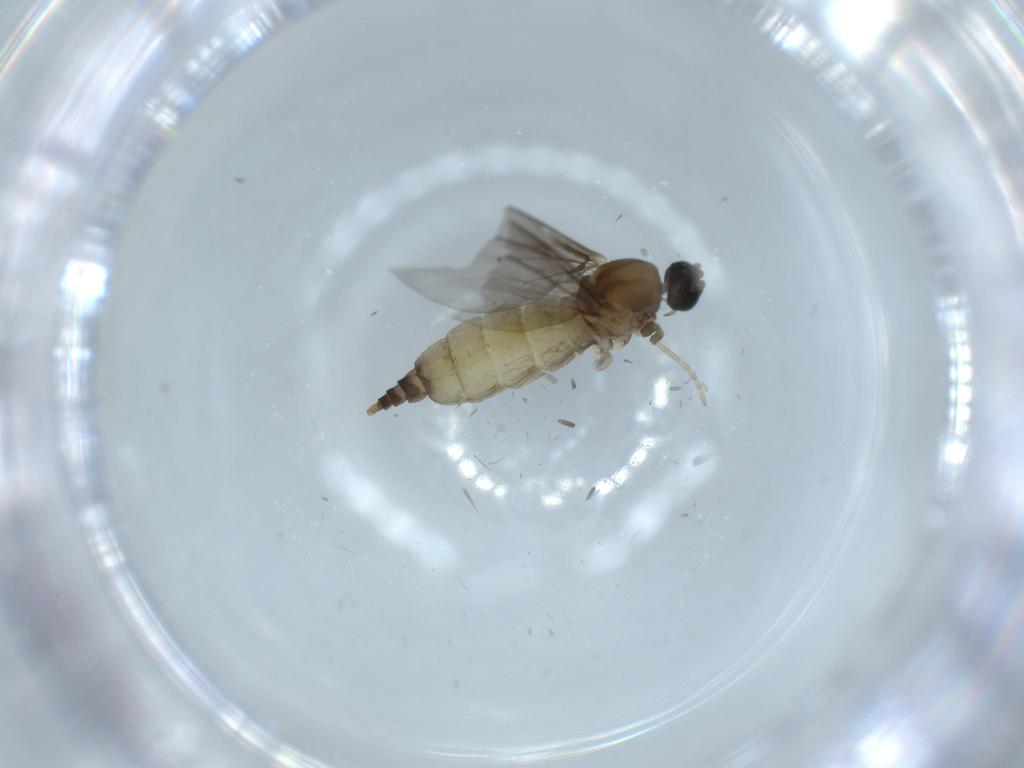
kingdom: Animalia
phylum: Arthropoda
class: Insecta
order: Diptera
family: Cecidomyiidae
